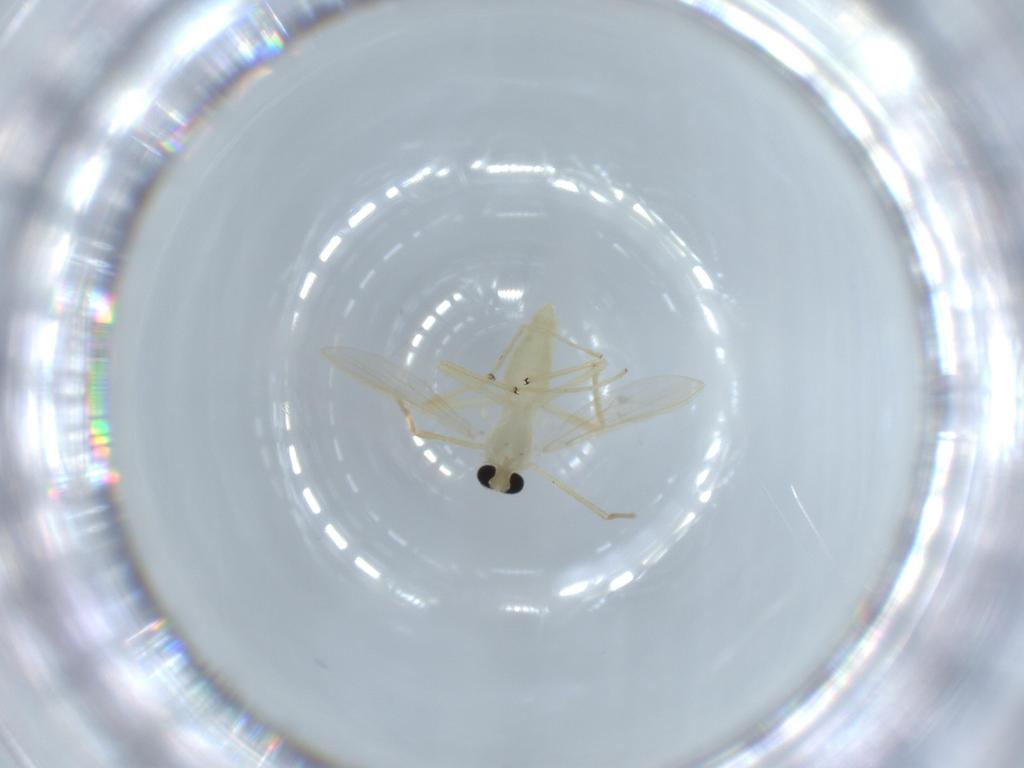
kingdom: Animalia
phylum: Arthropoda
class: Insecta
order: Diptera
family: Chironomidae
